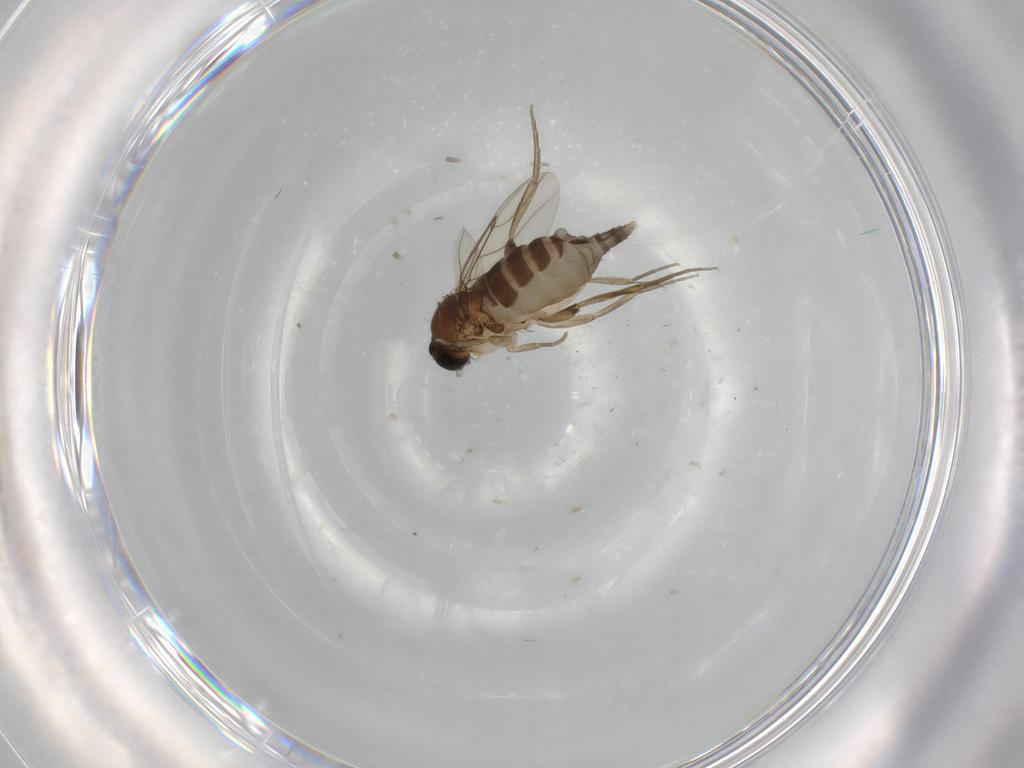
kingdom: Animalia
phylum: Arthropoda
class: Insecta
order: Diptera
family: Phoridae
